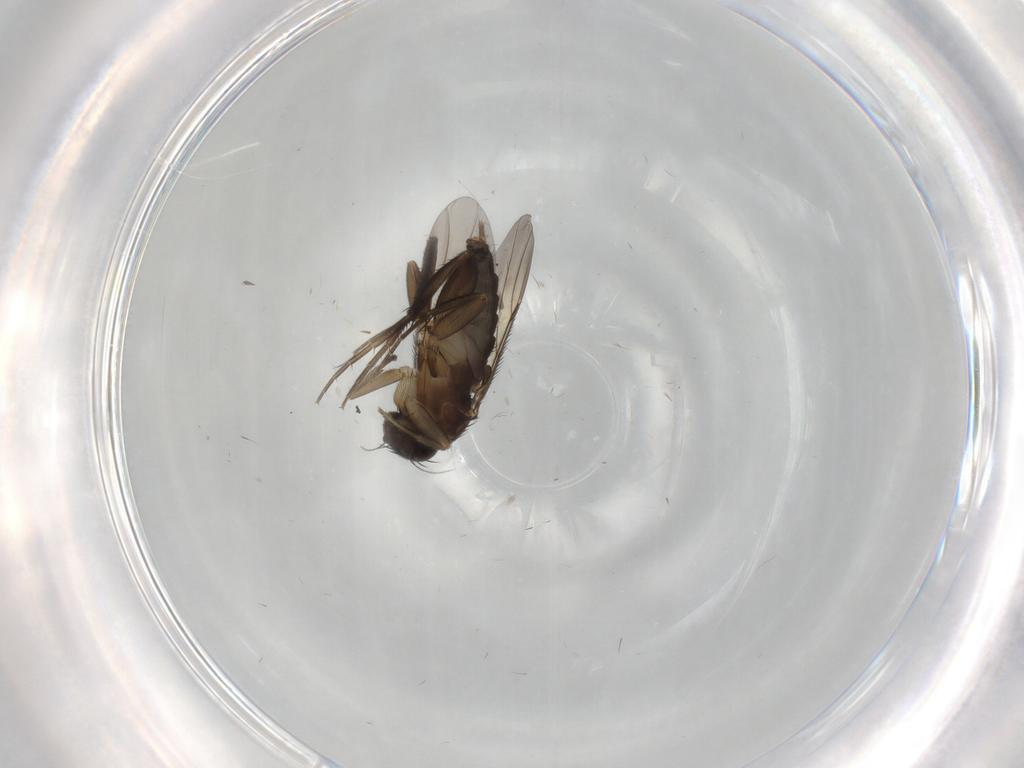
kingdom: Animalia
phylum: Arthropoda
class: Insecta
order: Diptera
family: Phoridae
